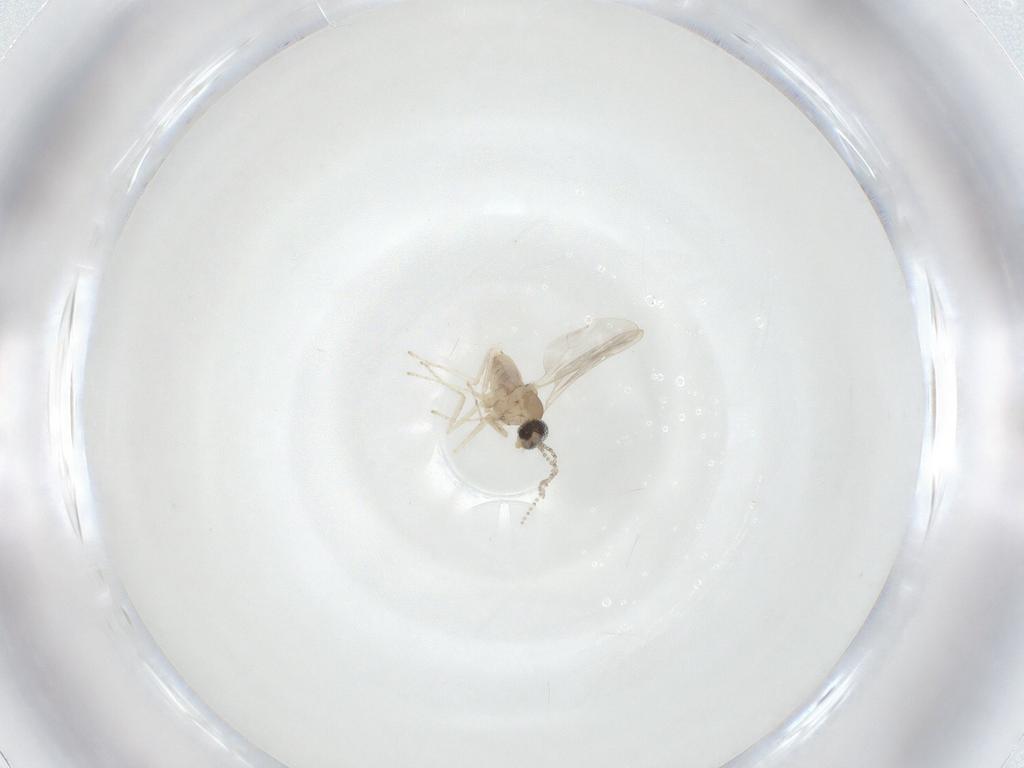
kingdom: Animalia
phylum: Arthropoda
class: Insecta
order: Diptera
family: Cecidomyiidae
